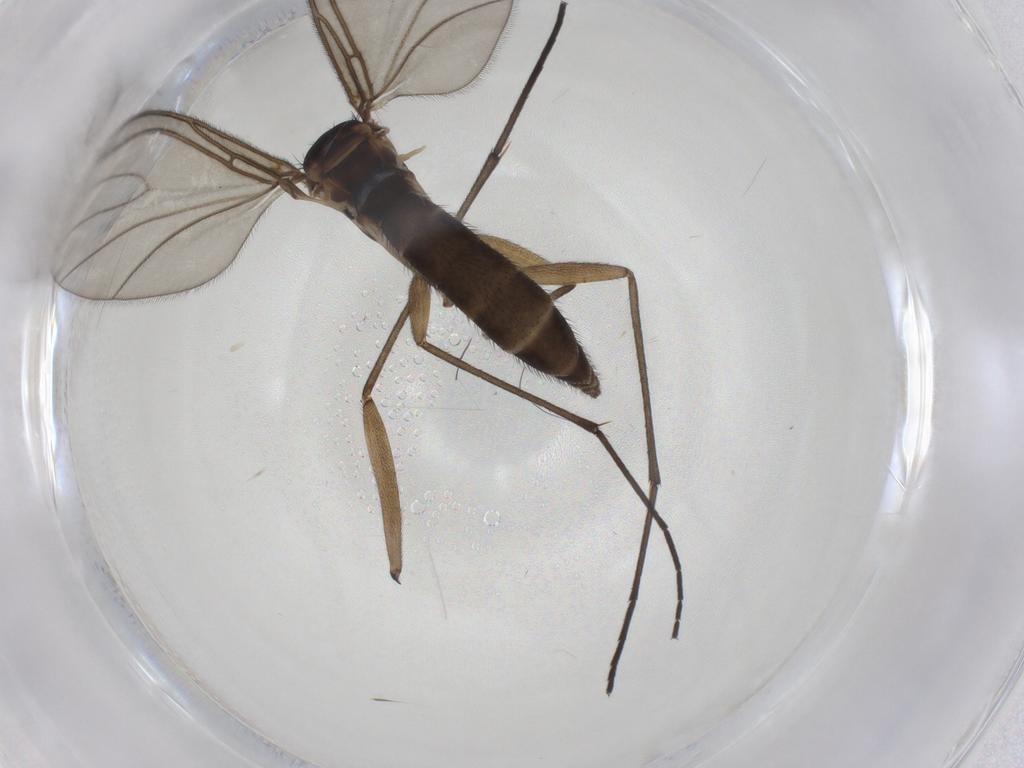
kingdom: Animalia
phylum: Arthropoda
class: Insecta
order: Diptera
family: Sciaridae
